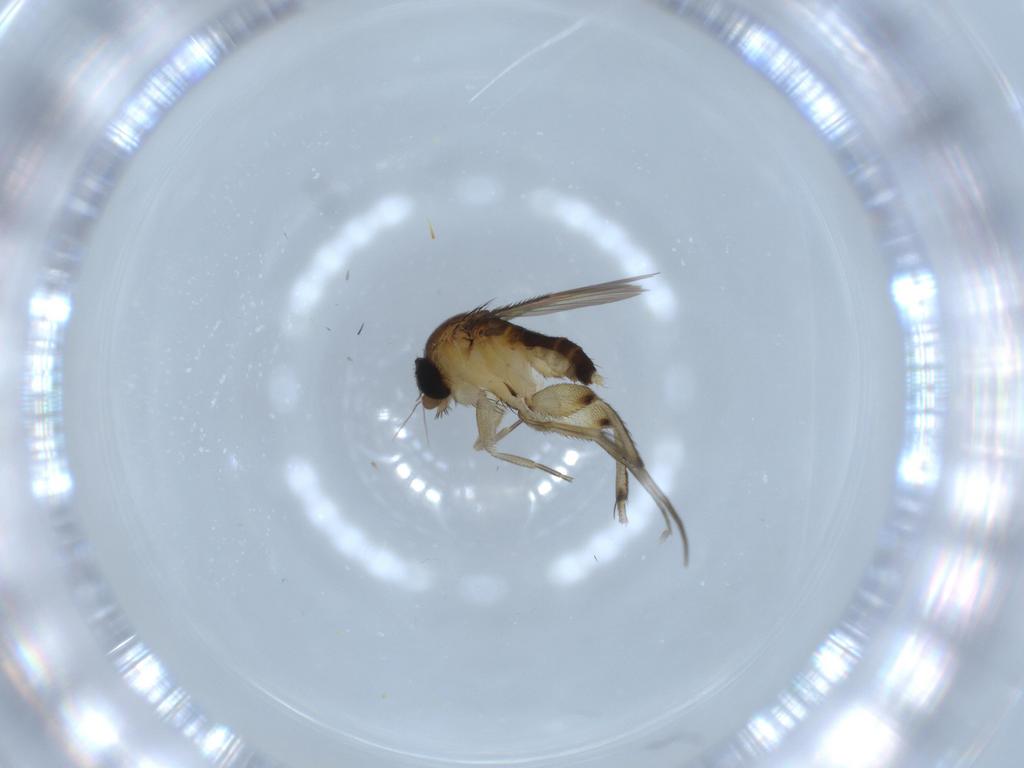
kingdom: Animalia
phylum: Arthropoda
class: Insecta
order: Diptera
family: Phoridae
